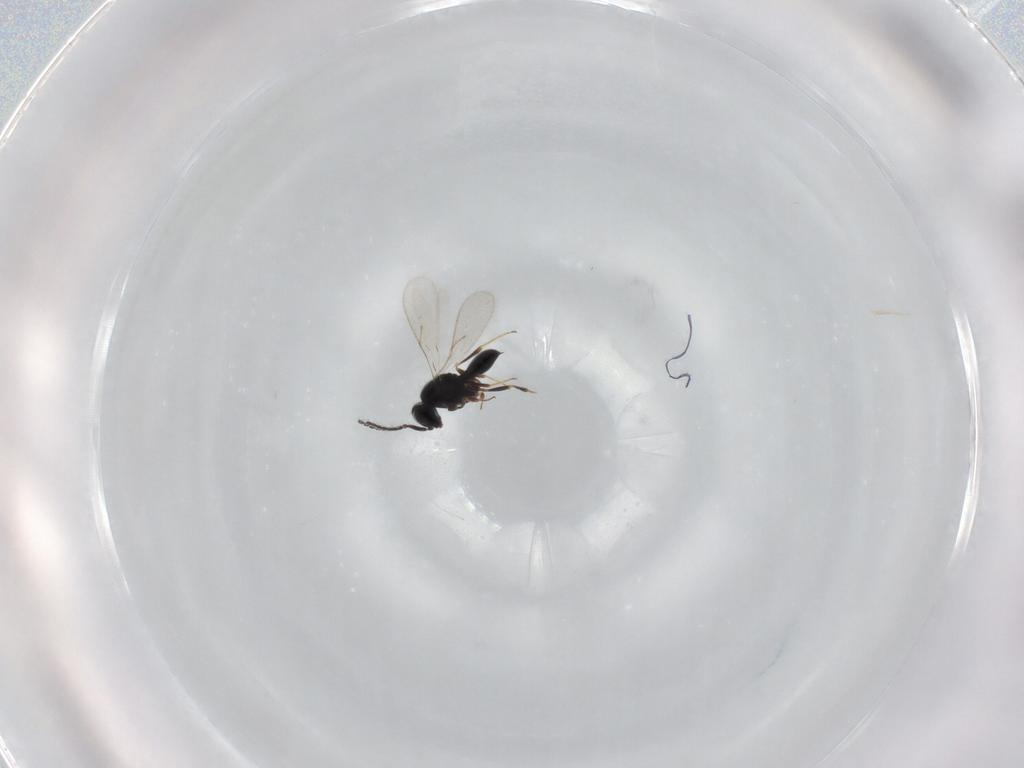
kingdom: Animalia
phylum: Arthropoda
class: Insecta
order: Hymenoptera
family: Scelionidae
